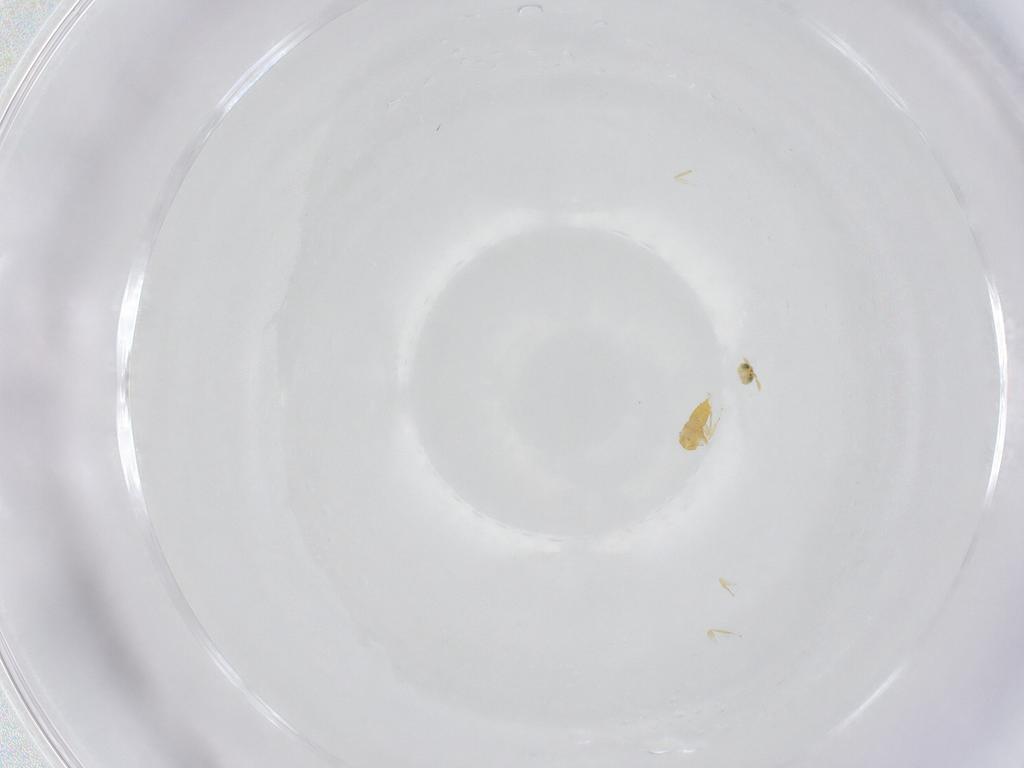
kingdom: Animalia
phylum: Arthropoda
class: Insecta
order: Hymenoptera
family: Aphelinidae
